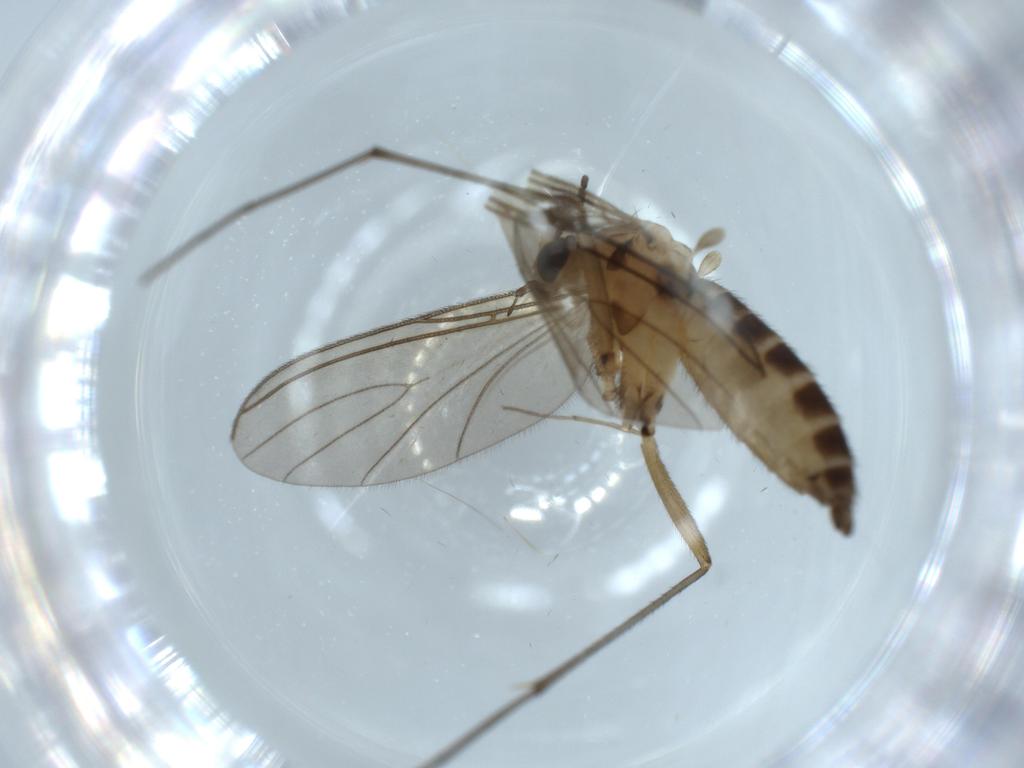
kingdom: Animalia
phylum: Arthropoda
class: Insecta
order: Diptera
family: Sciaridae
